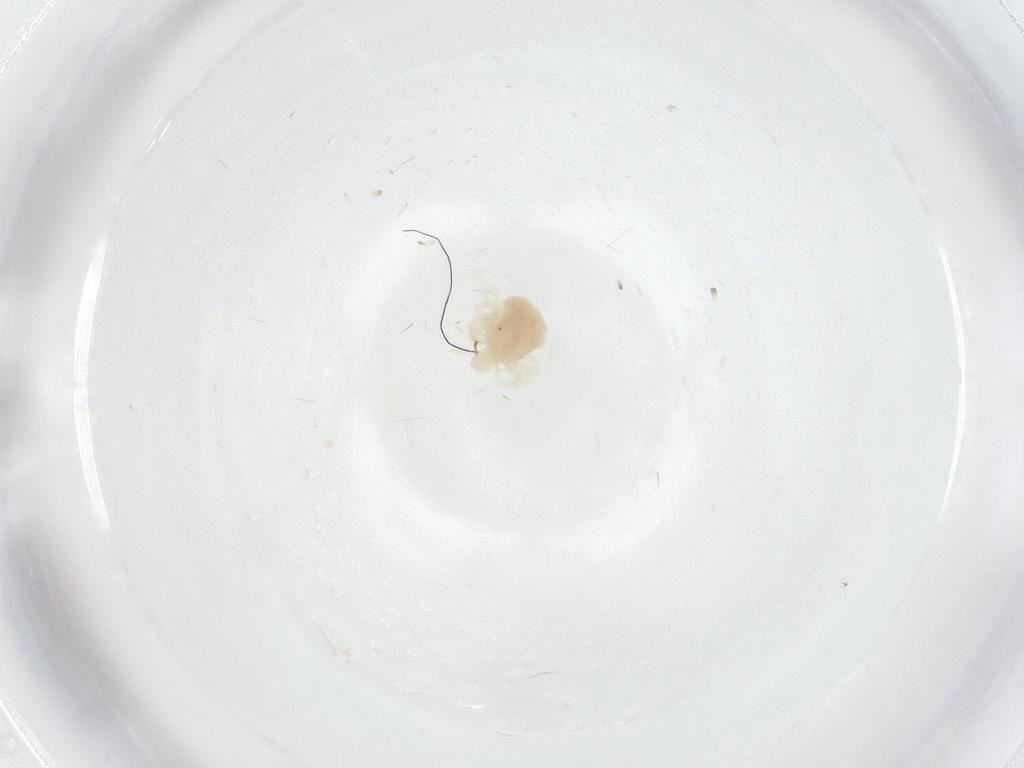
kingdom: Animalia
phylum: Arthropoda
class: Arachnida
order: Trombidiformes
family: Anystidae
